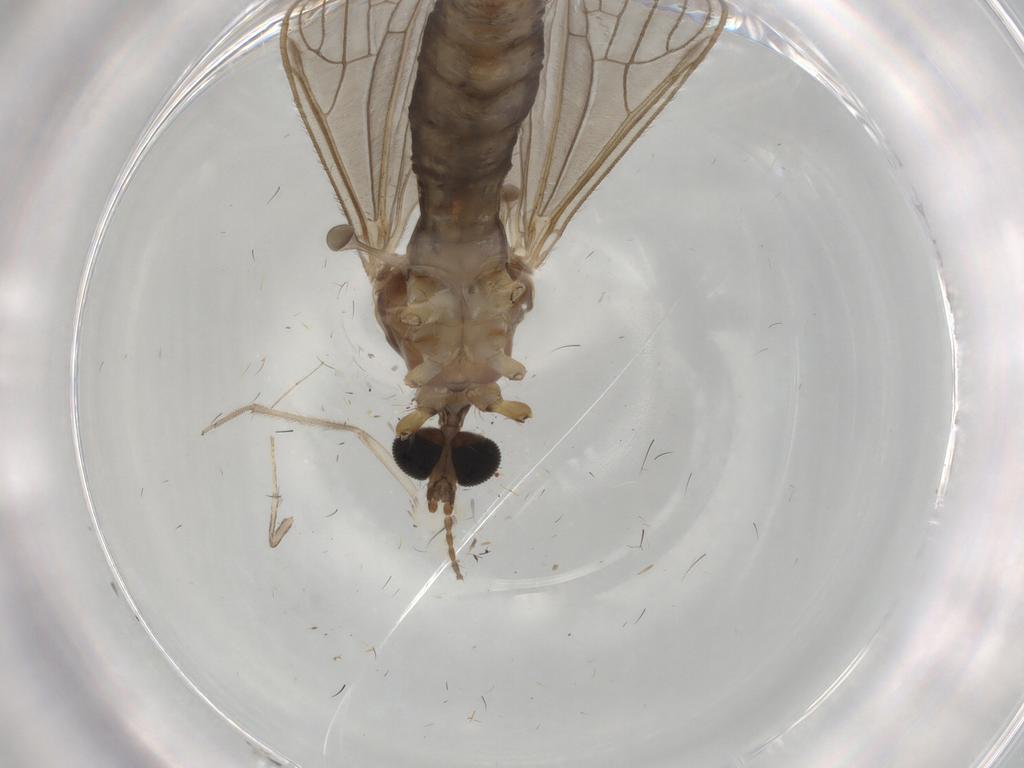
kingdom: Animalia
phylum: Arthropoda
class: Insecta
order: Diptera
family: Limoniidae
